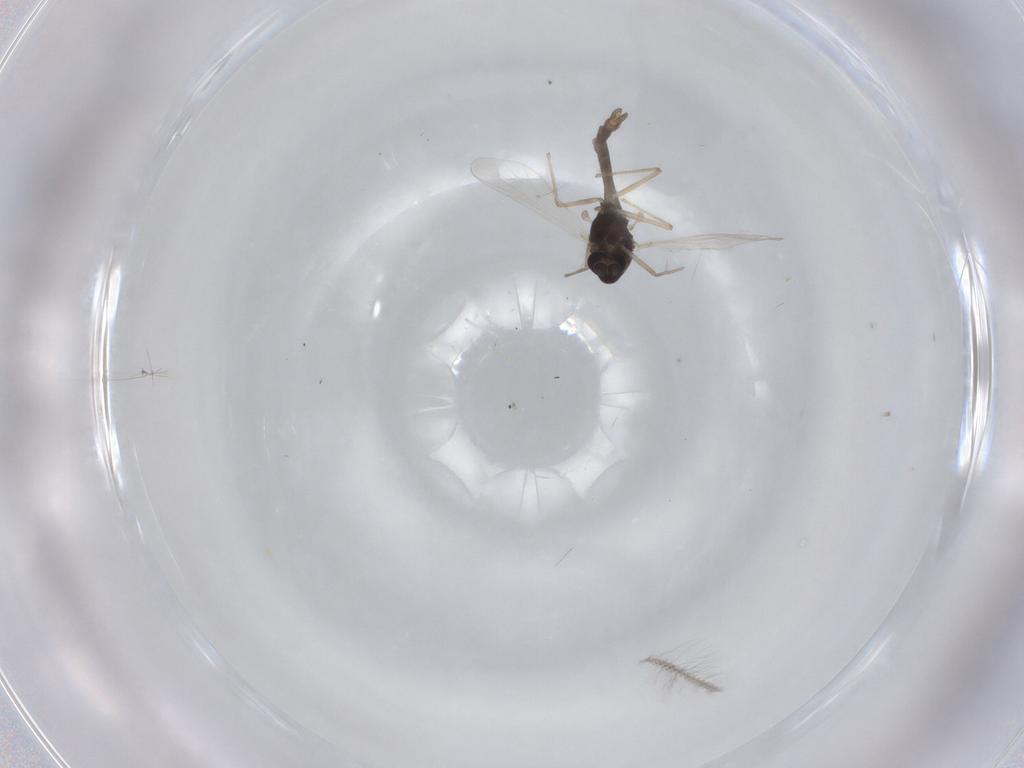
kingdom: Animalia
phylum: Arthropoda
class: Insecta
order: Diptera
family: Chironomidae
